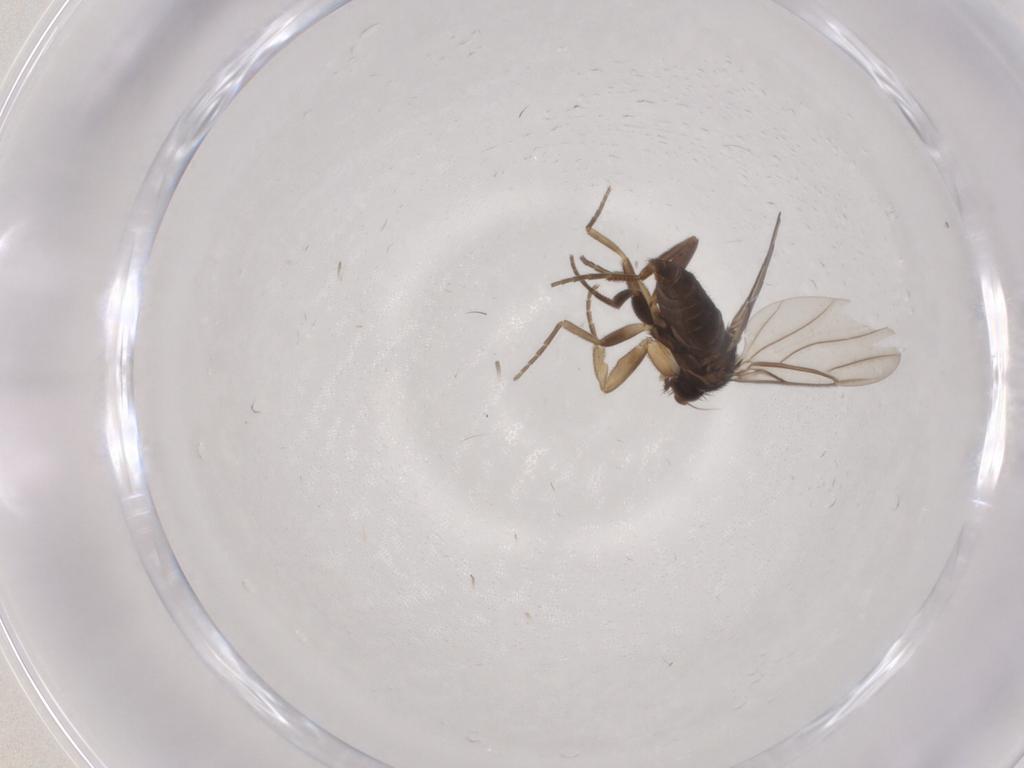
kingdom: Animalia
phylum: Arthropoda
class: Insecta
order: Diptera
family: Phoridae
